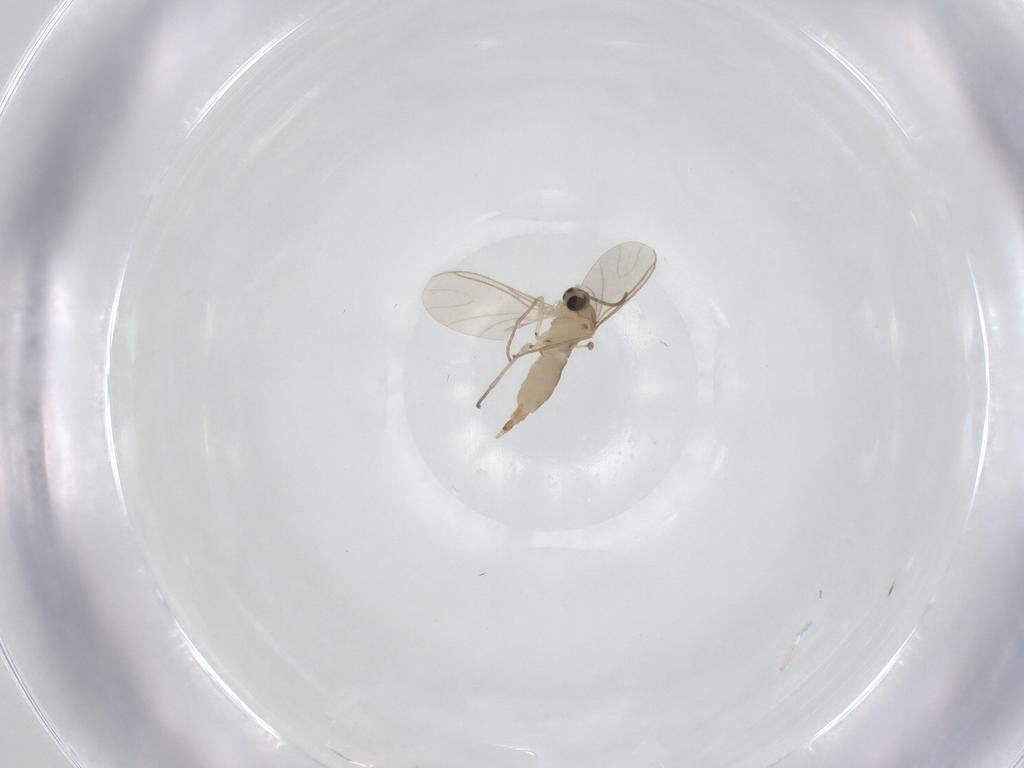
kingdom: Animalia
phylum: Arthropoda
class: Insecta
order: Diptera
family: Sciaridae
